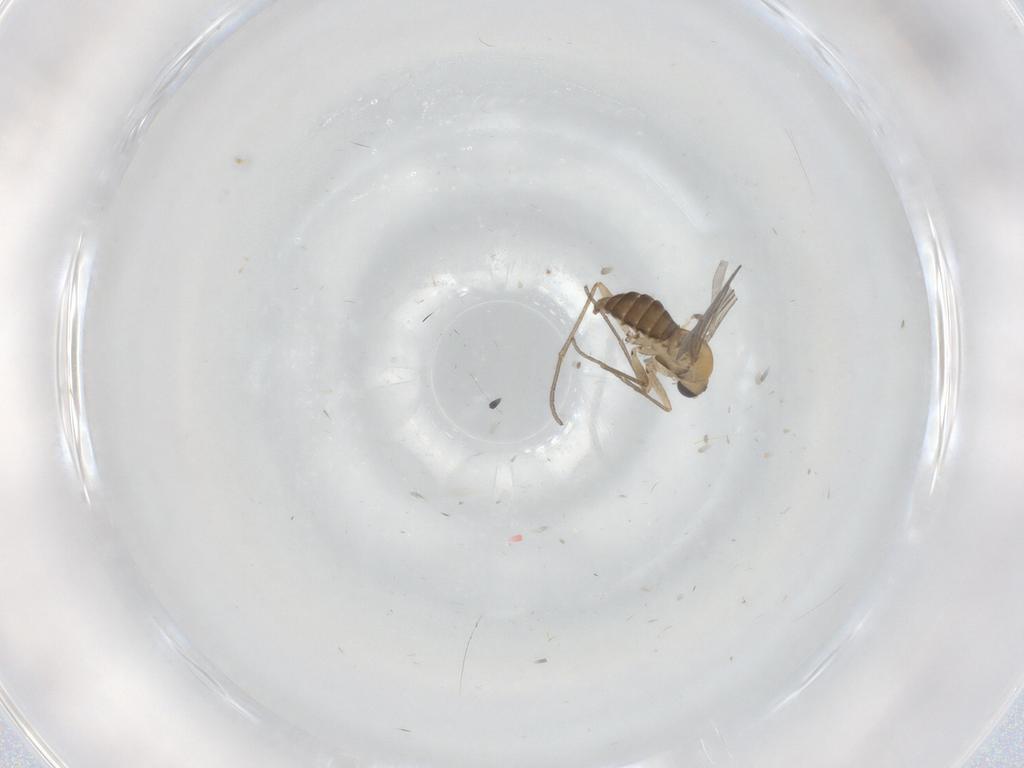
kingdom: Animalia
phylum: Arthropoda
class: Insecta
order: Diptera
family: Sciaridae
